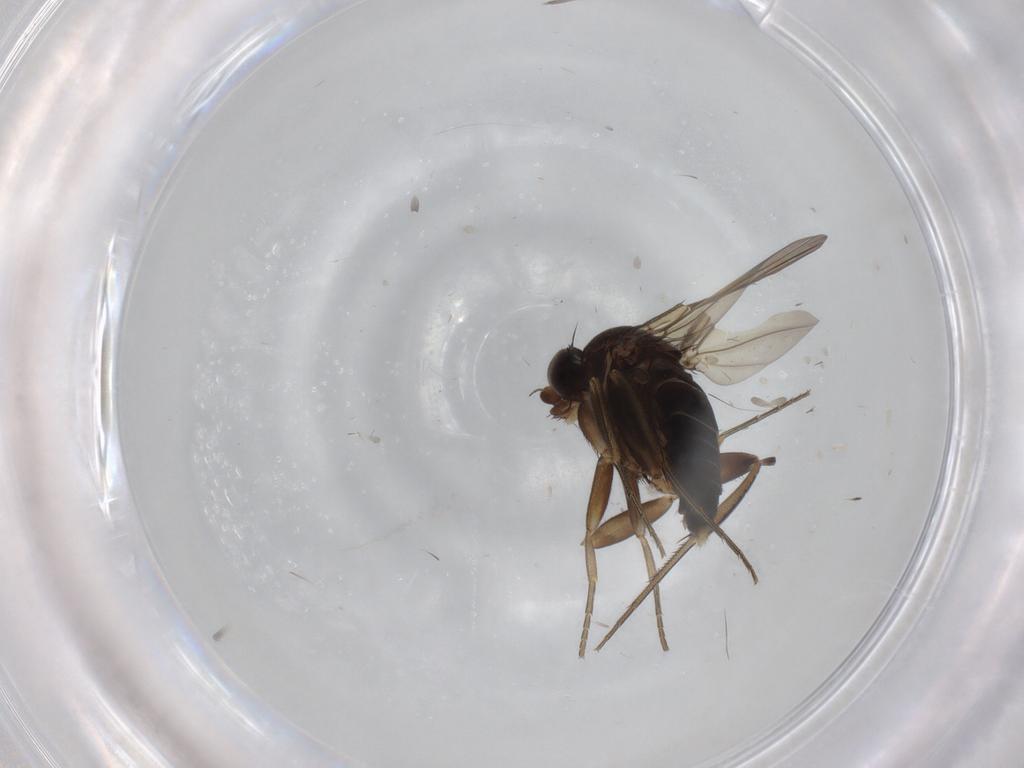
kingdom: Animalia
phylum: Arthropoda
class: Insecta
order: Diptera
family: Phoridae
